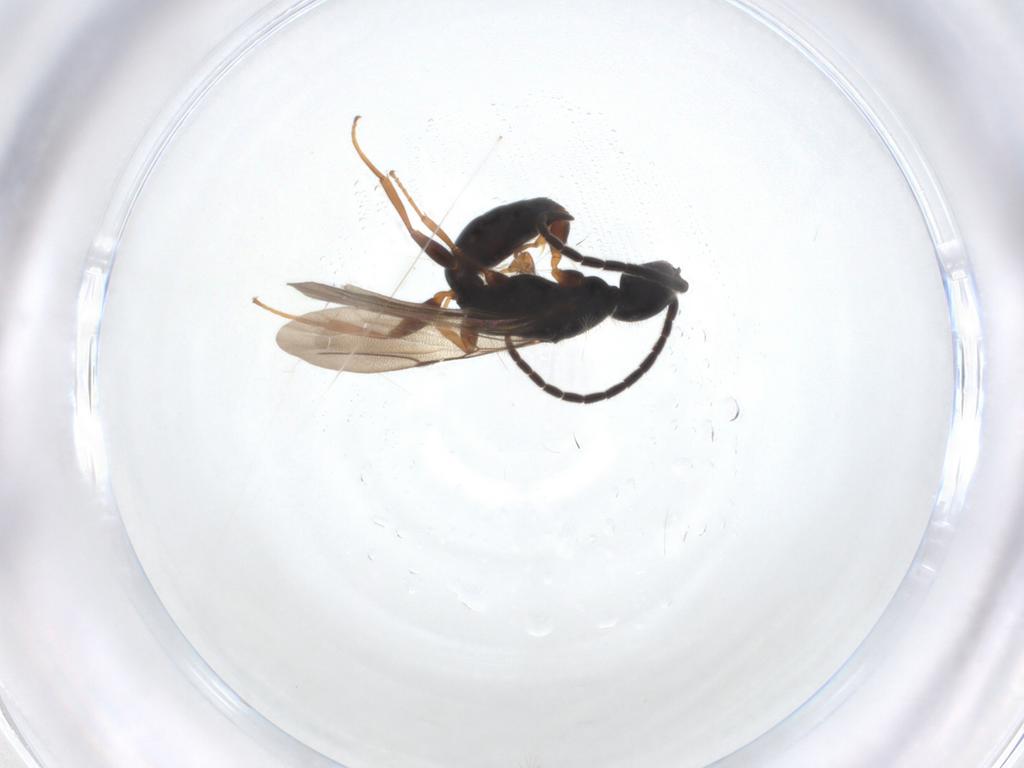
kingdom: Animalia
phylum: Arthropoda
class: Insecta
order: Hymenoptera
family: Bethylidae
